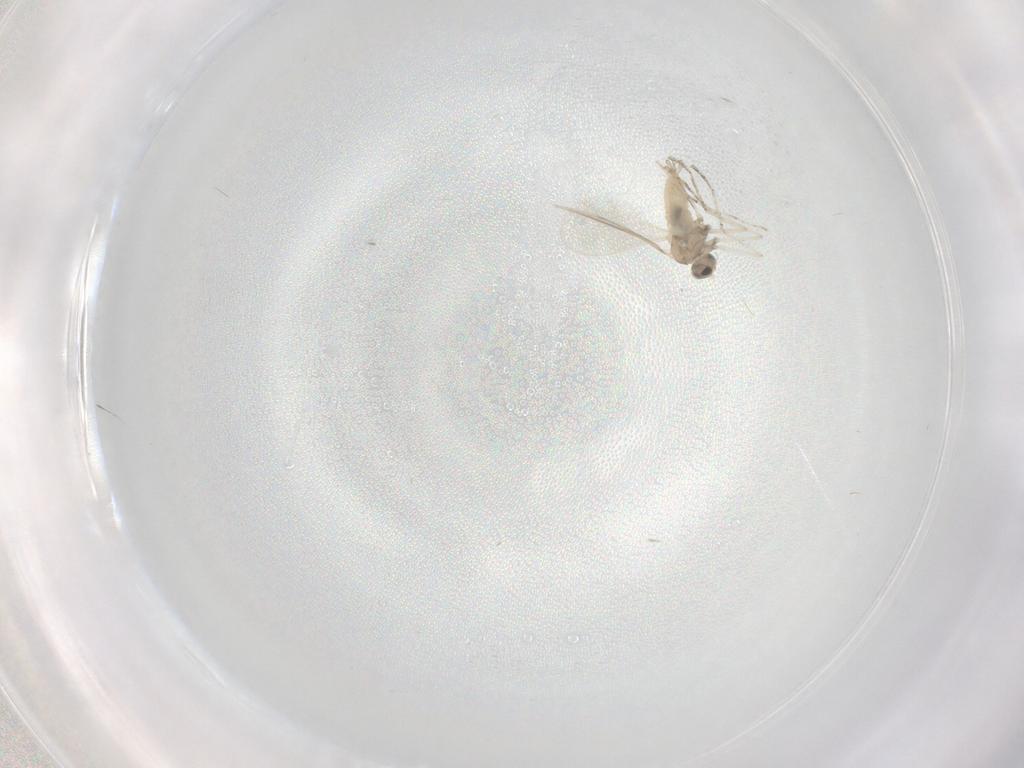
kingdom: Animalia
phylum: Arthropoda
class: Insecta
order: Diptera
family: Cecidomyiidae
